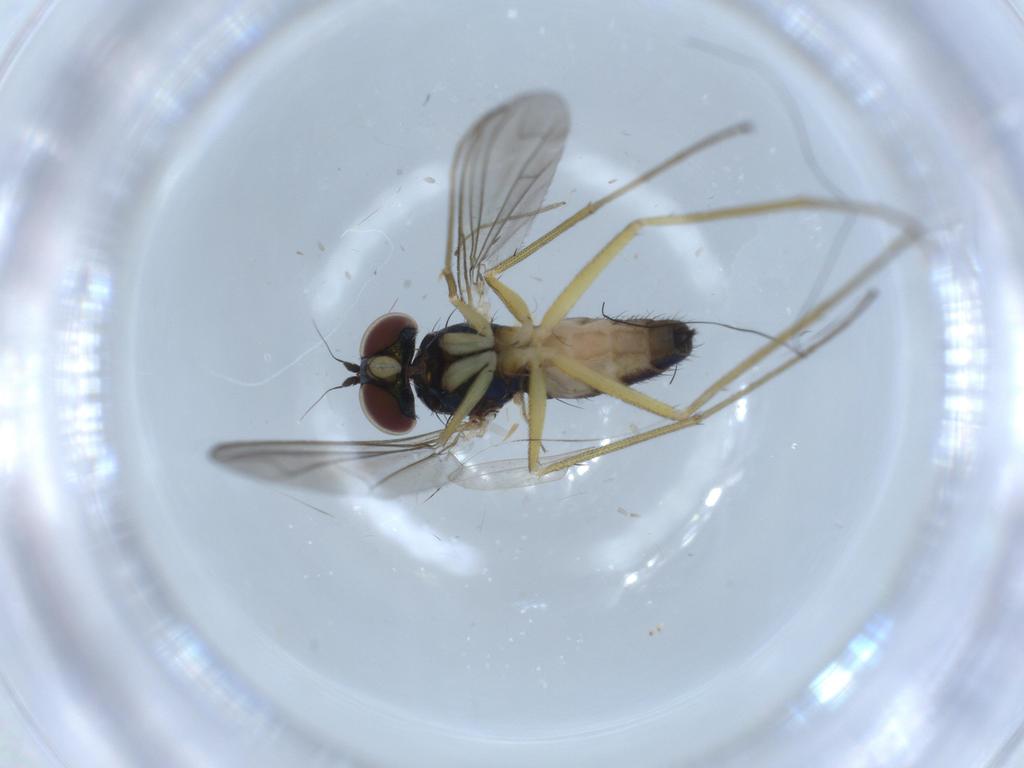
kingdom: Animalia
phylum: Arthropoda
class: Insecta
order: Diptera
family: Dolichopodidae
